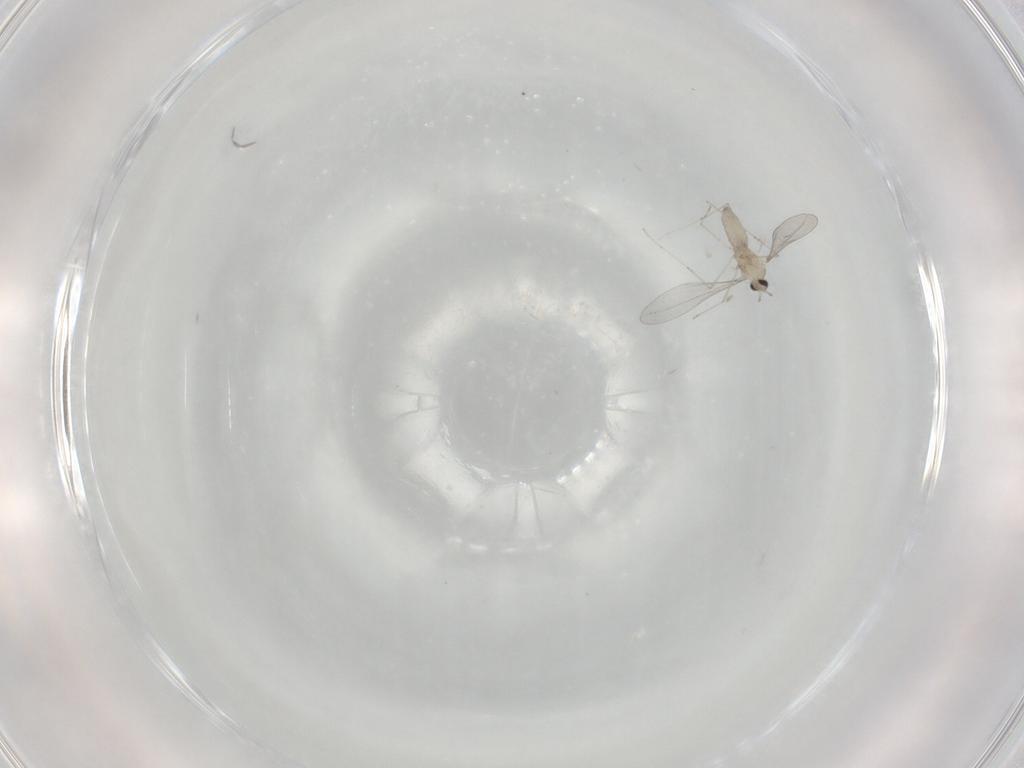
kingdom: Animalia
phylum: Arthropoda
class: Insecta
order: Diptera
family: Cecidomyiidae
